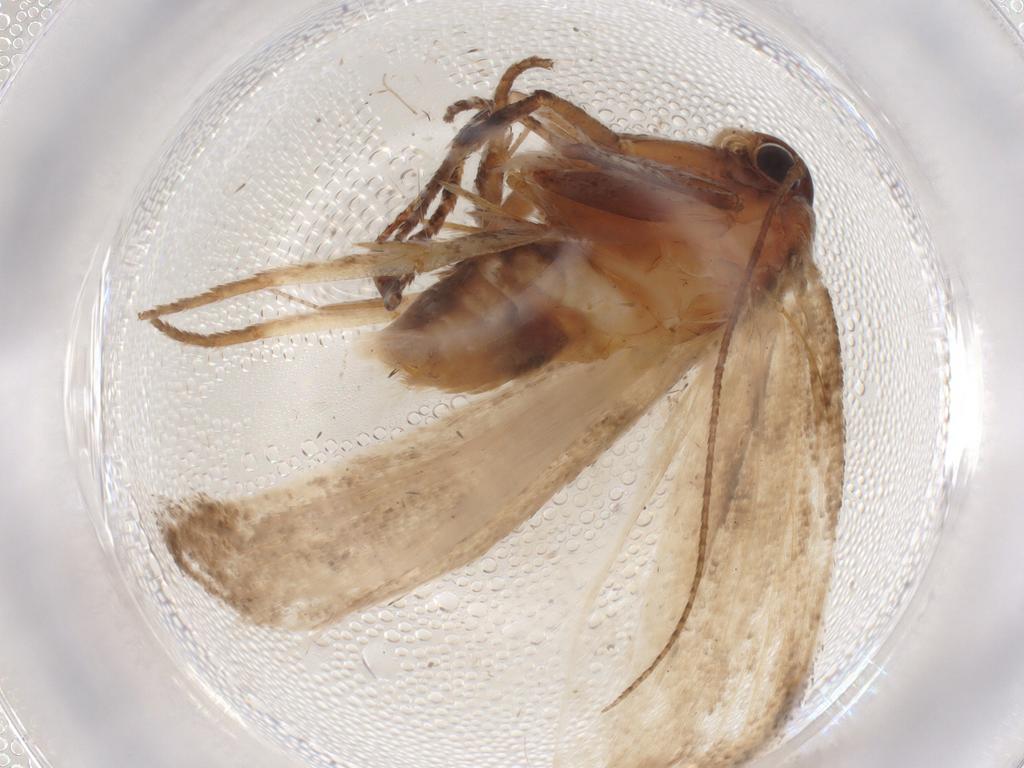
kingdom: Animalia
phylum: Arthropoda
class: Insecta
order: Lepidoptera
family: Cosmopterigidae
